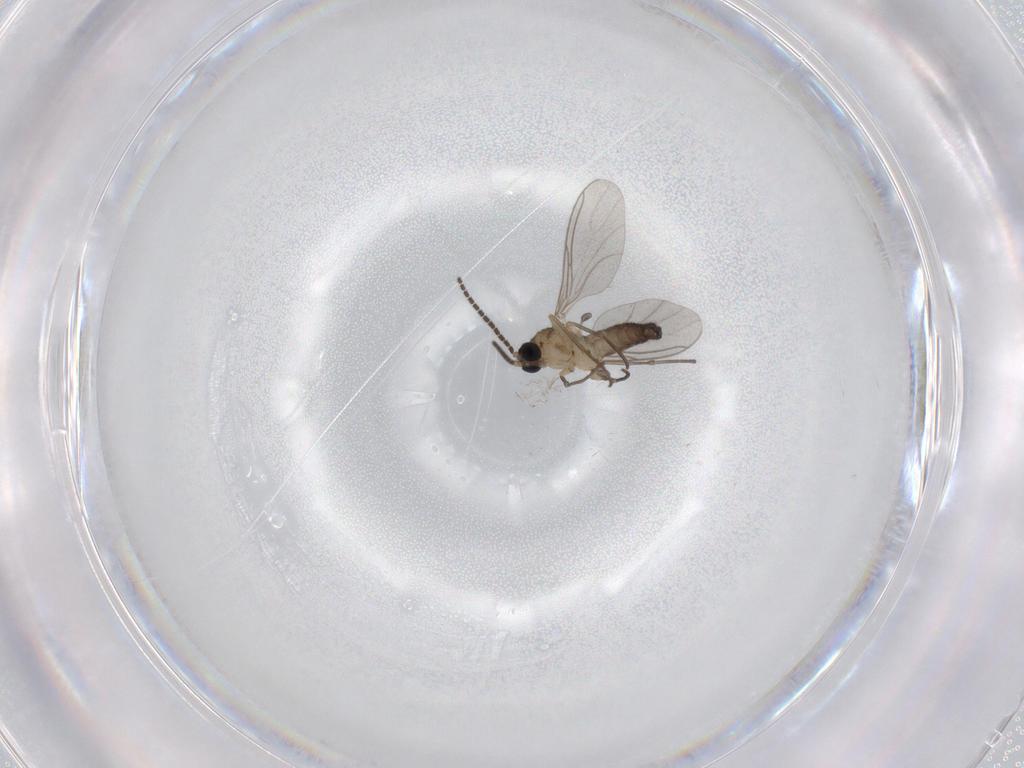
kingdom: Animalia
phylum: Arthropoda
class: Insecta
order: Diptera
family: Sciaridae
